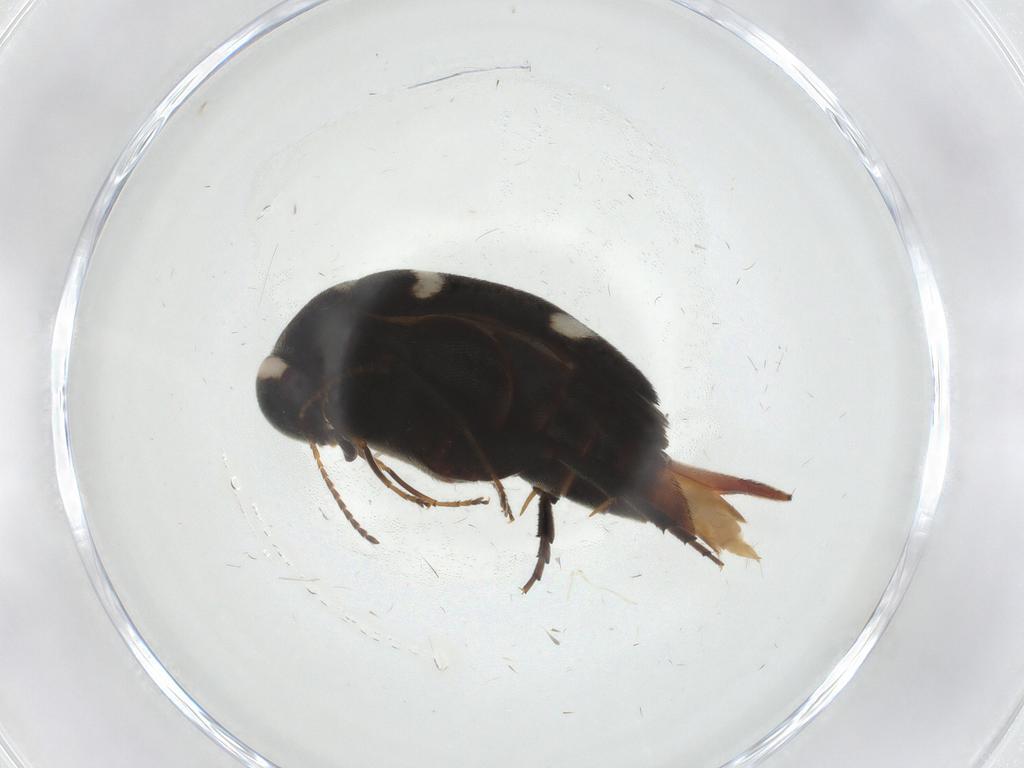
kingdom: Animalia
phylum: Arthropoda
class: Insecta
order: Coleoptera
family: Mordellidae
